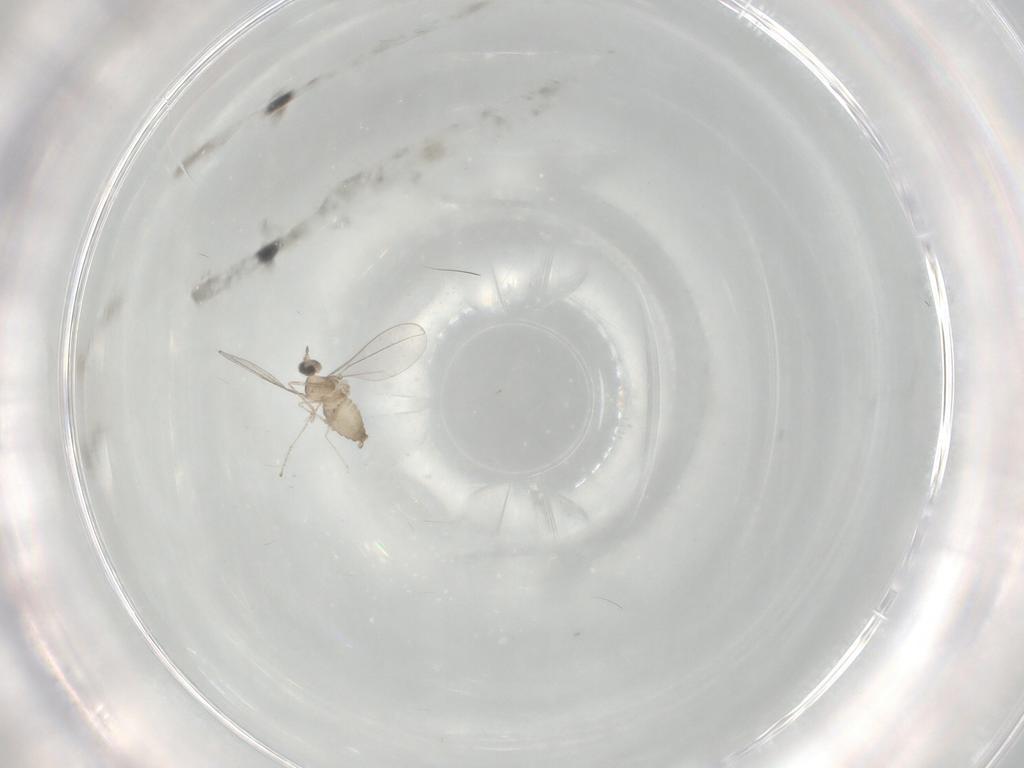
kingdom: Animalia
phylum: Arthropoda
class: Insecta
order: Diptera
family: Cecidomyiidae
